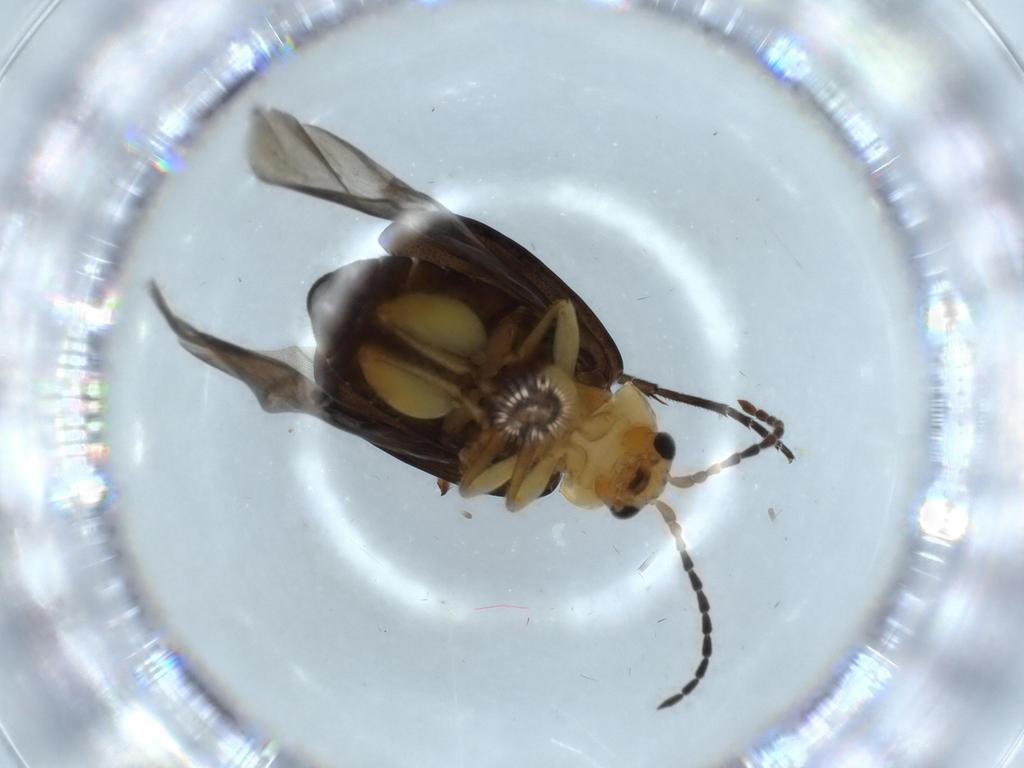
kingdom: Animalia
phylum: Arthropoda
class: Insecta
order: Coleoptera
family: Chrysomelidae
